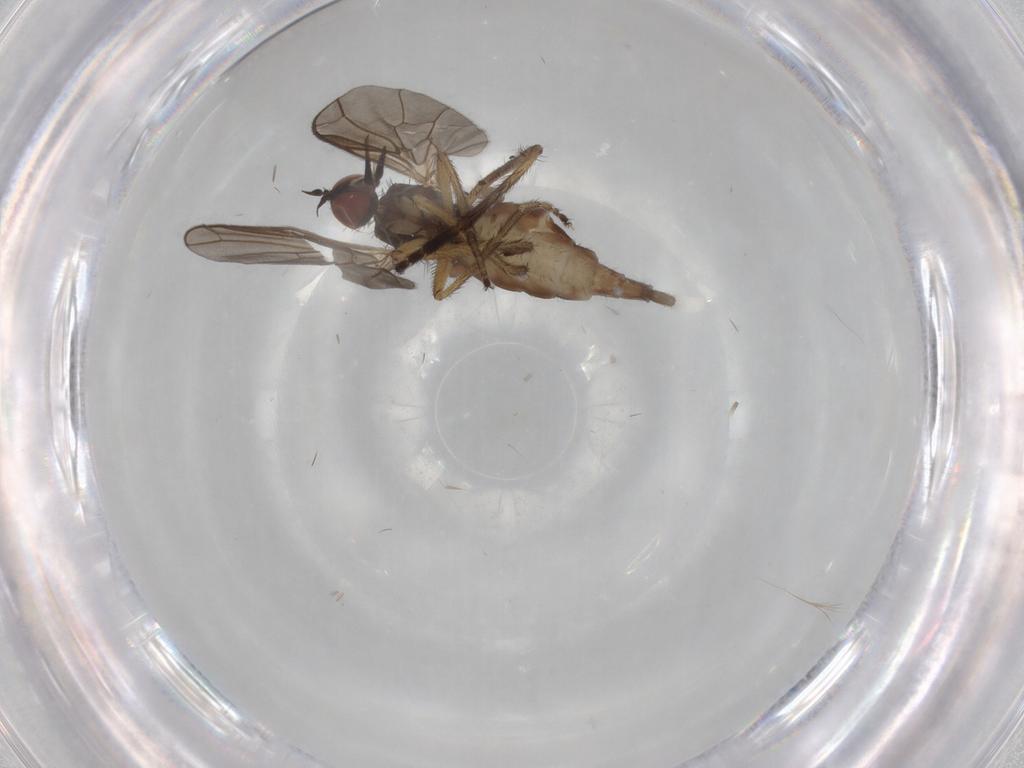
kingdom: Animalia
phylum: Arthropoda
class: Insecta
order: Diptera
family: Empididae
